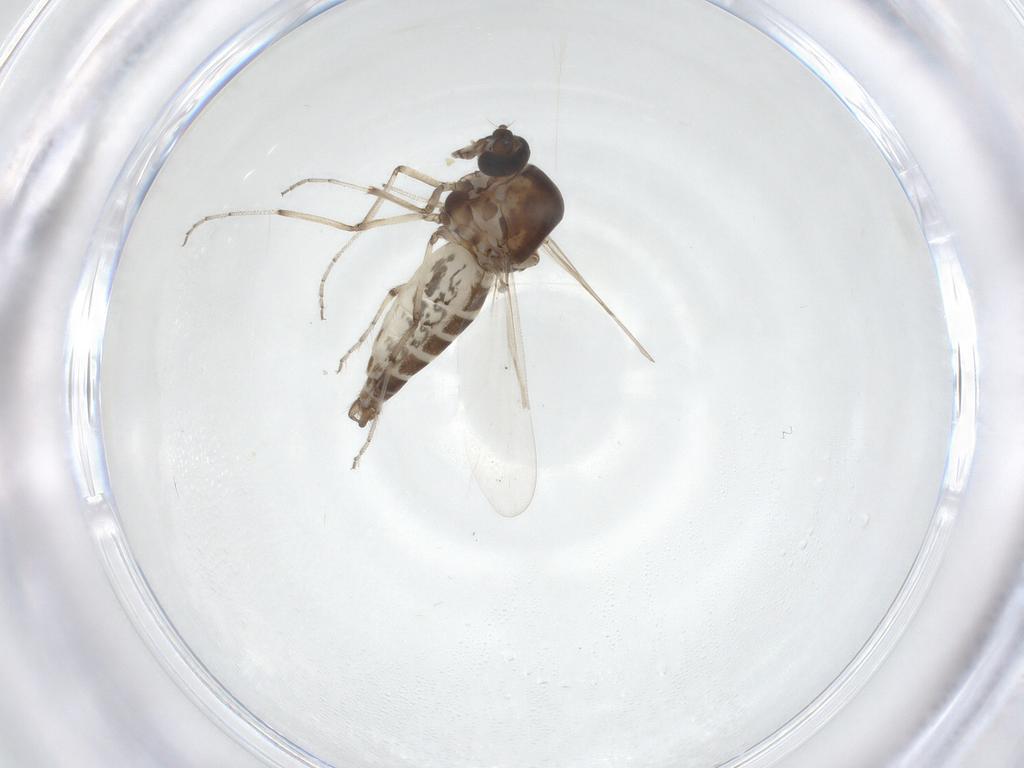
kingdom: Animalia
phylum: Arthropoda
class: Insecta
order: Diptera
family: Ceratopogonidae
